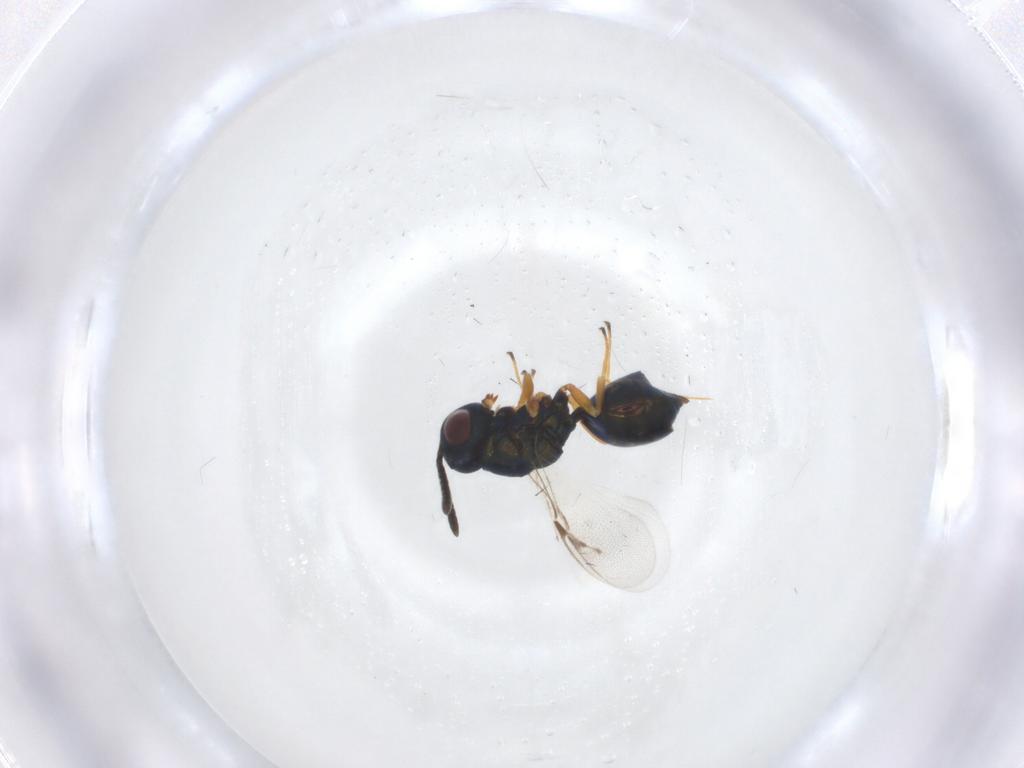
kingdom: Animalia
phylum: Arthropoda
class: Insecta
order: Hymenoptera
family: Pteromalidae
